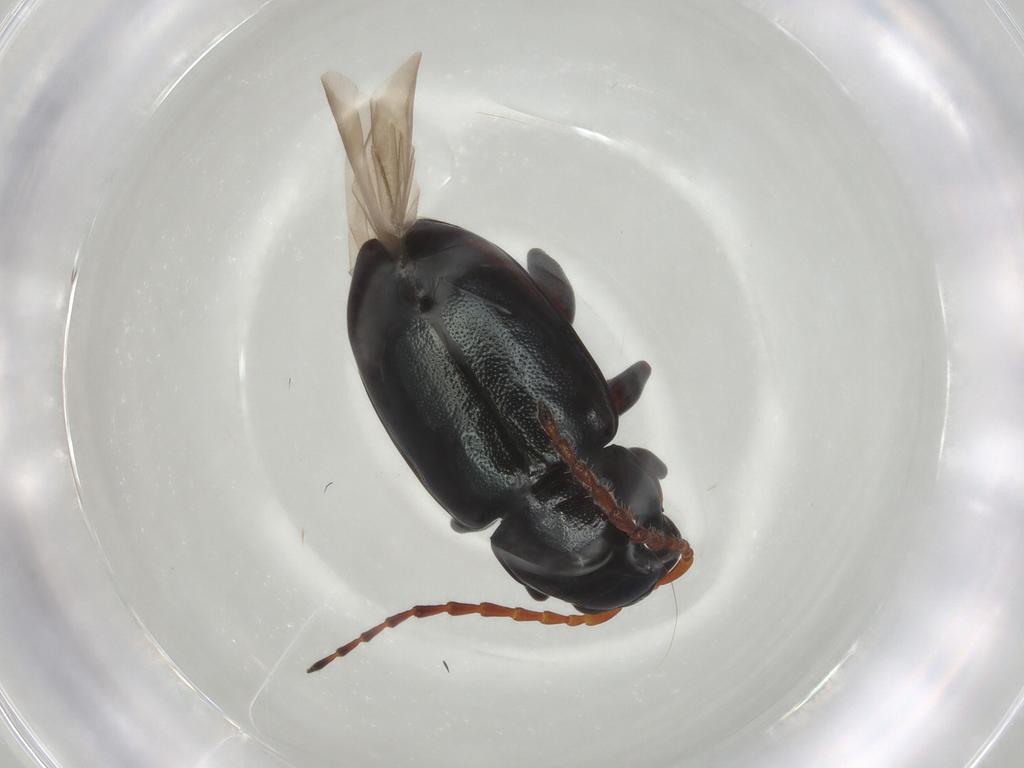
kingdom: Animalia
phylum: Arthropoda
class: Insecta
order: Coleoptera
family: Chrysomelidae
